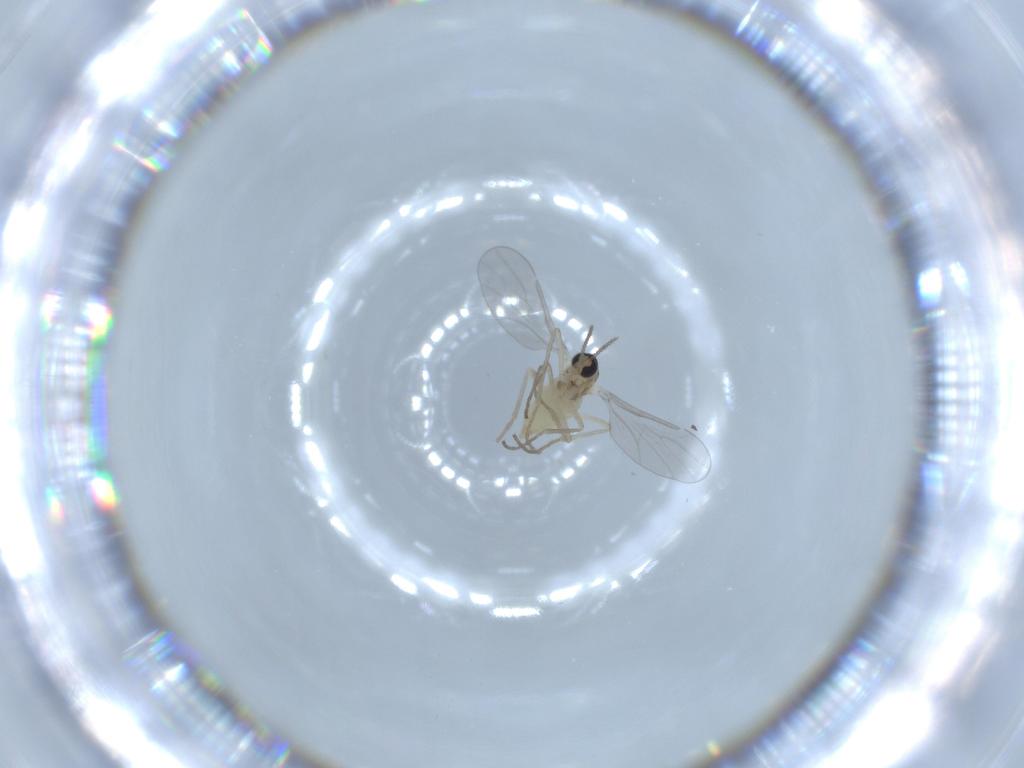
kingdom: Animalia
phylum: Arthropoda
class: Insecta
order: Diptera
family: Cecidomyiidae
